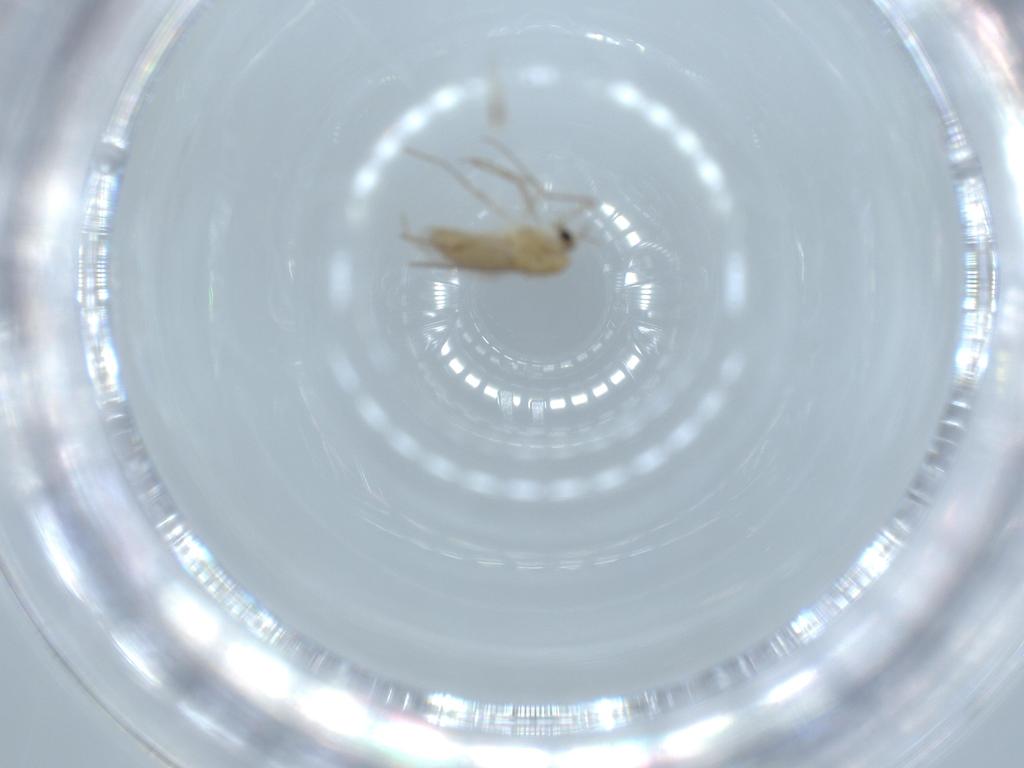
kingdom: Animalia
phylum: Arthropoda
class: Insecta
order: Diptera
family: Chironomidae
